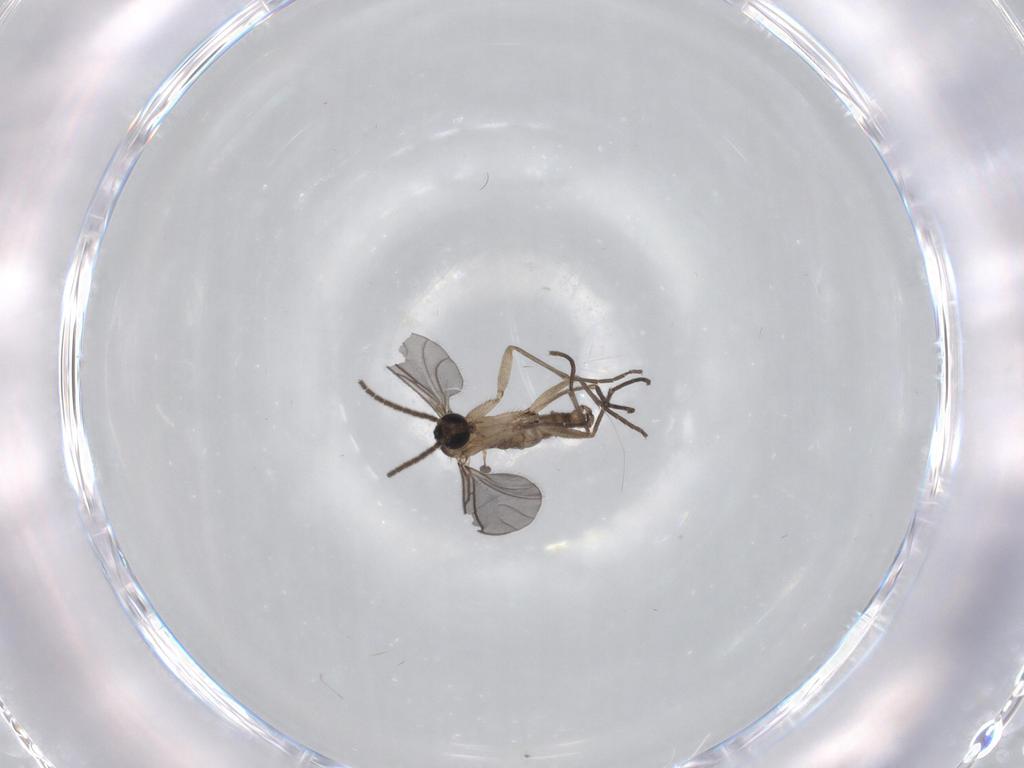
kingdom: Animalia
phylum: Arthropoda
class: Insecta
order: Diptera
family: Sciaridae
